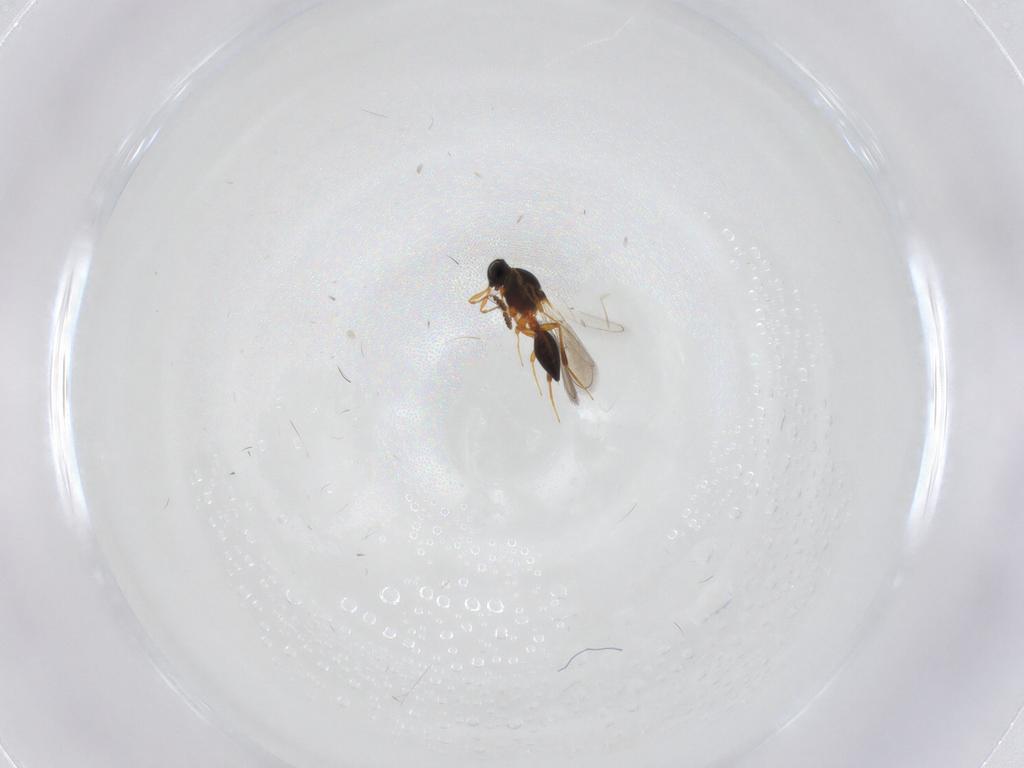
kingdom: Animalia
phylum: Arthropoda
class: Insecta
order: Hymenoptera
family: Platygastridae
